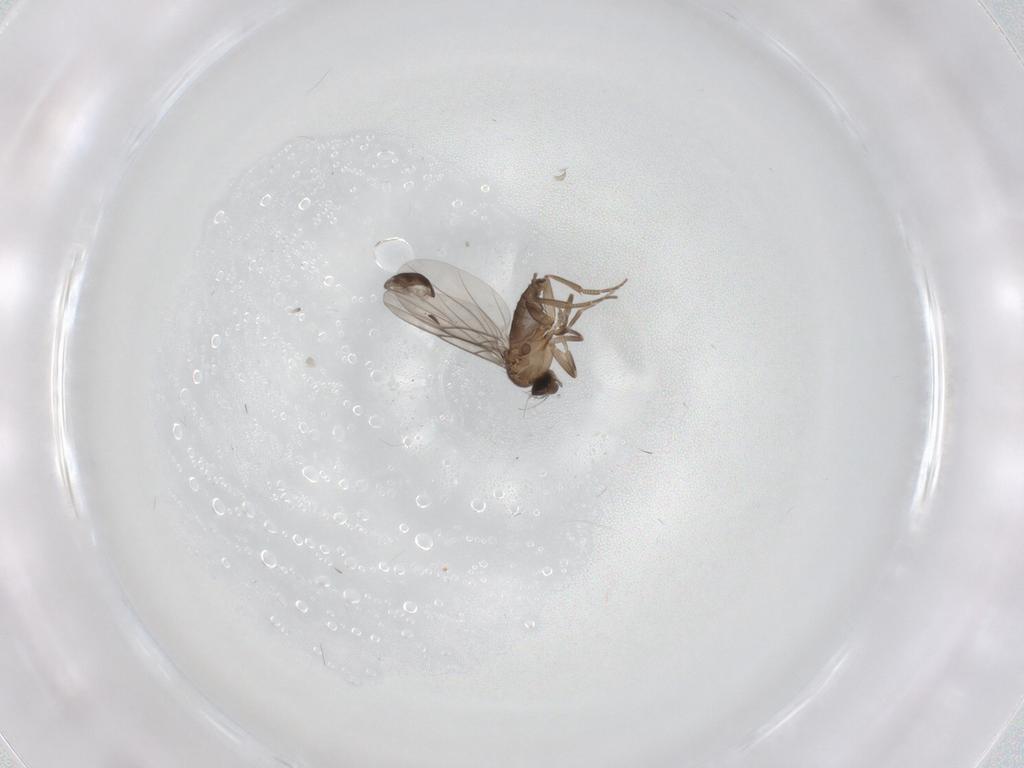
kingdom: Animalia
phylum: Arthropoda
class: Insecta
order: Diptera
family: Phoridae
